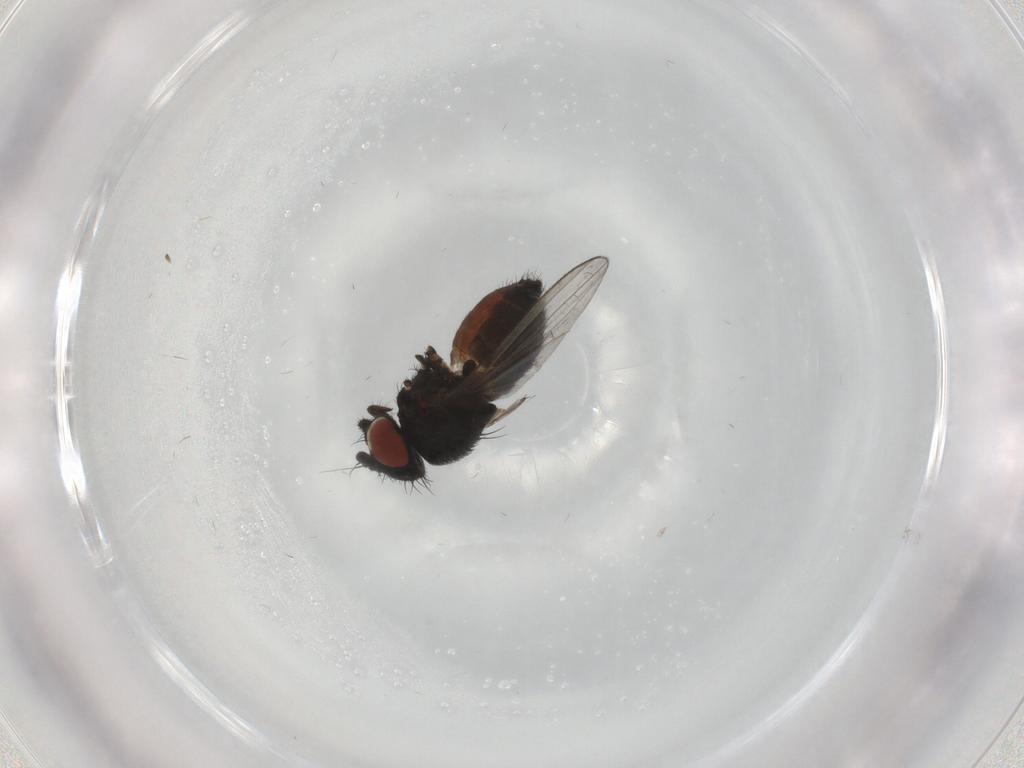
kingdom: Animalia
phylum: Arthropoda
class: Insecta
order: Diptera
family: Milichiidae
